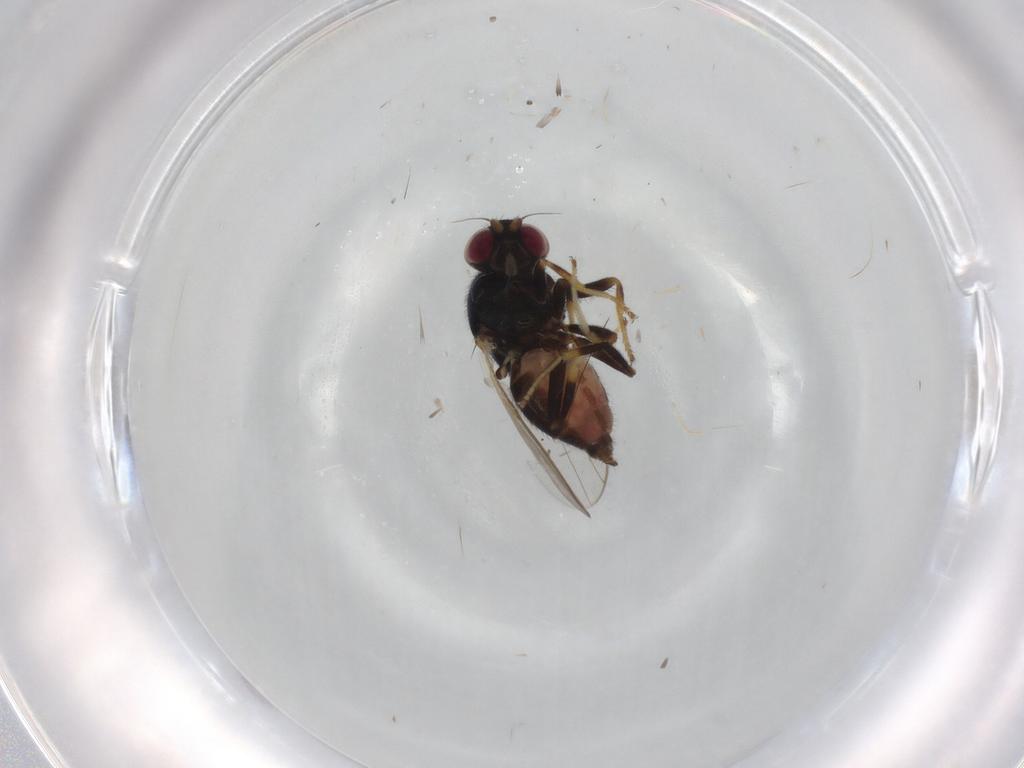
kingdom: Animalia
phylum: Arthropoda
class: Insecta
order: Diptera
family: Chloropidae
